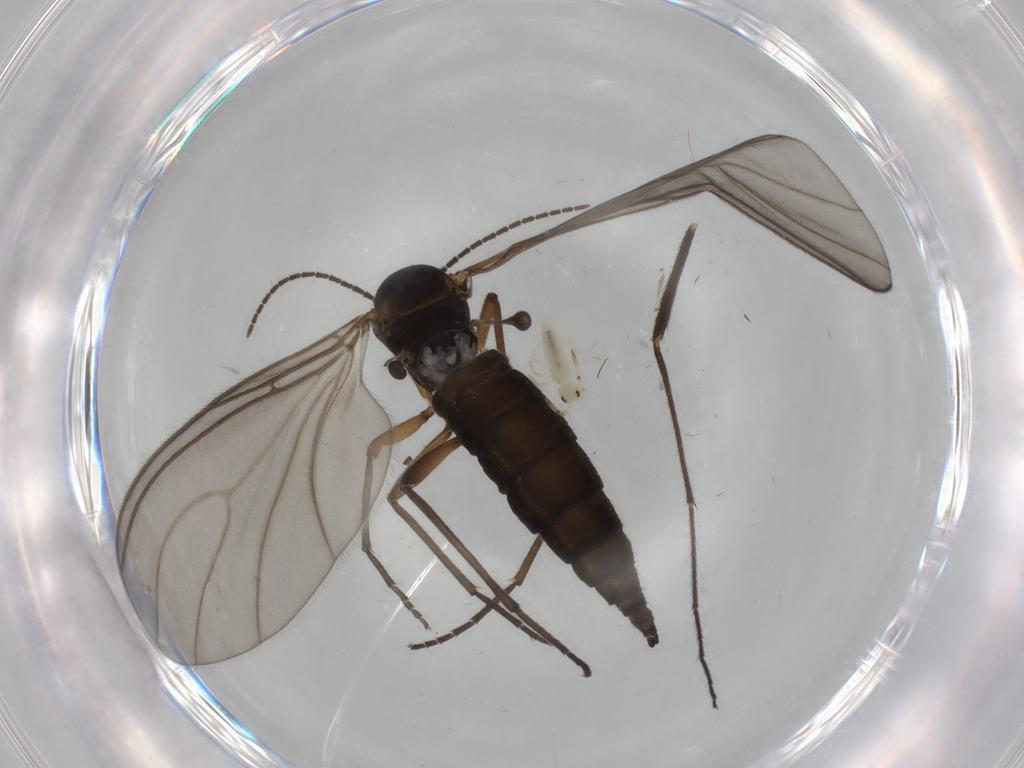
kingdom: Animalia
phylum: Arthropoda
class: Insecta
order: Diptera
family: Sciaridae
